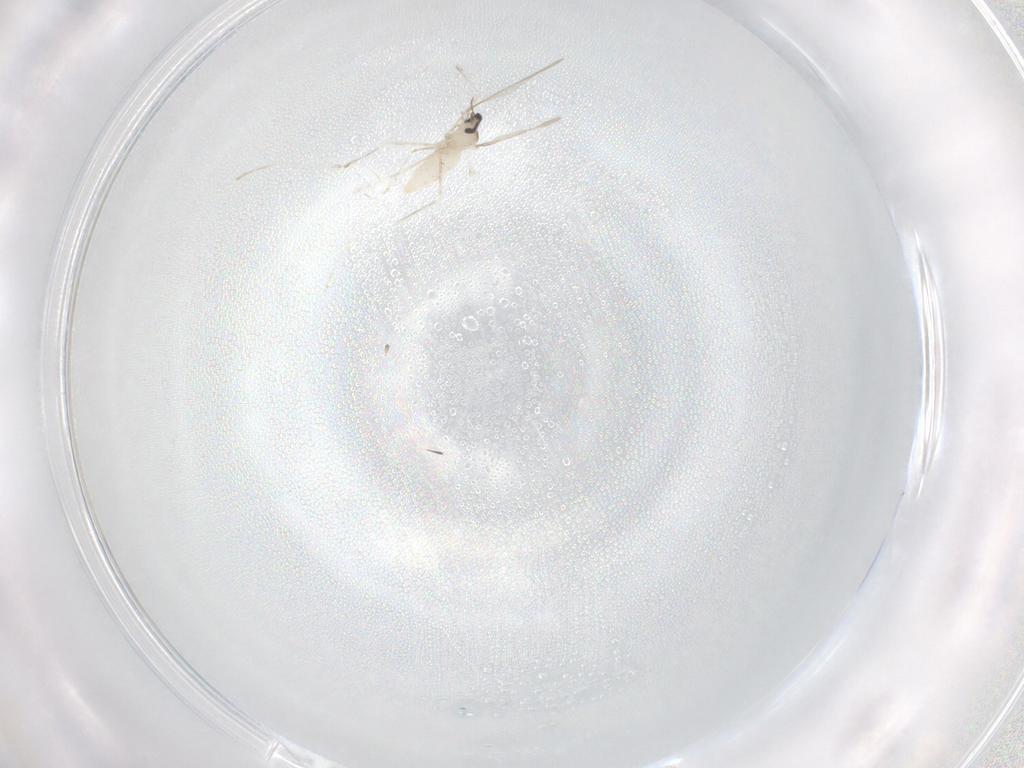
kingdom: Animalia
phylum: Arthropoda
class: Insecta
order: Diptera
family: Cecidomyiidae
